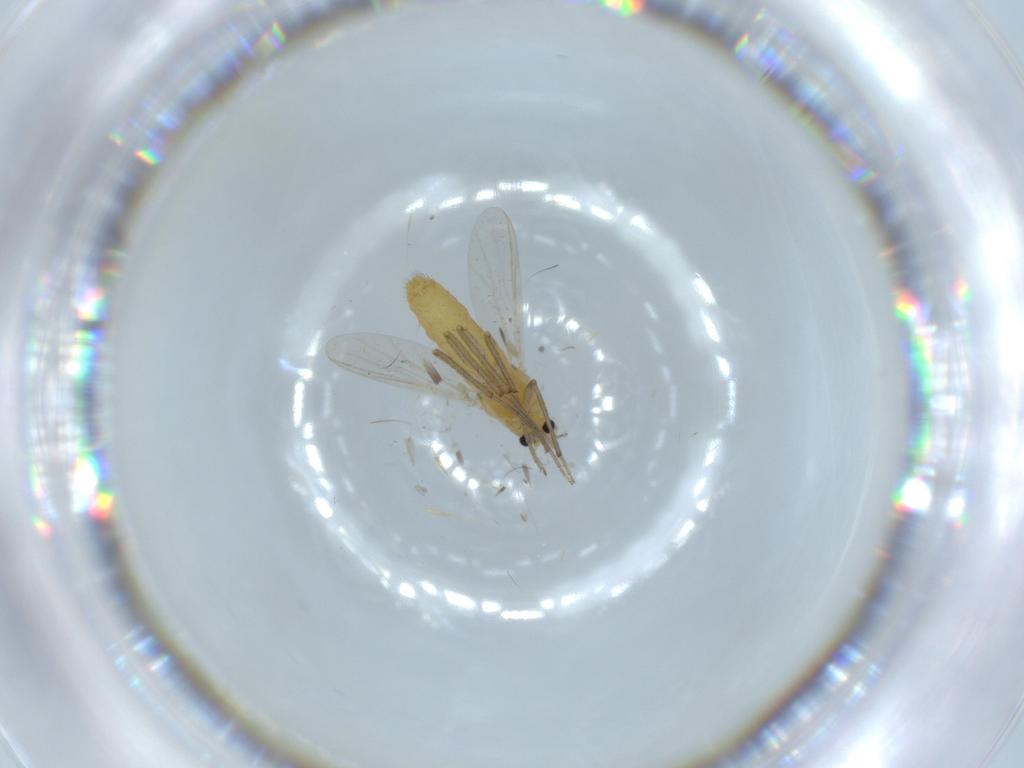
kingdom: Animalia
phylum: Arthropoda
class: Insecta
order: Diptera
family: Chironomidae
